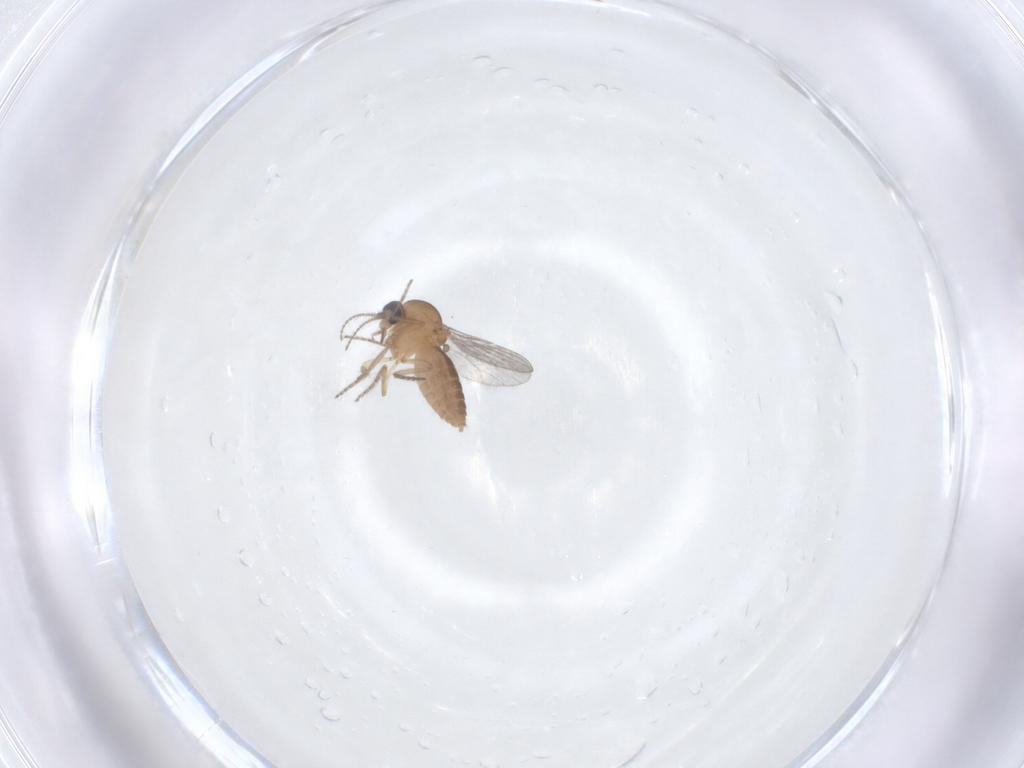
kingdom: Animalia
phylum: Arthropoda
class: Insecta
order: Diptera
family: Ceratopogonidae
